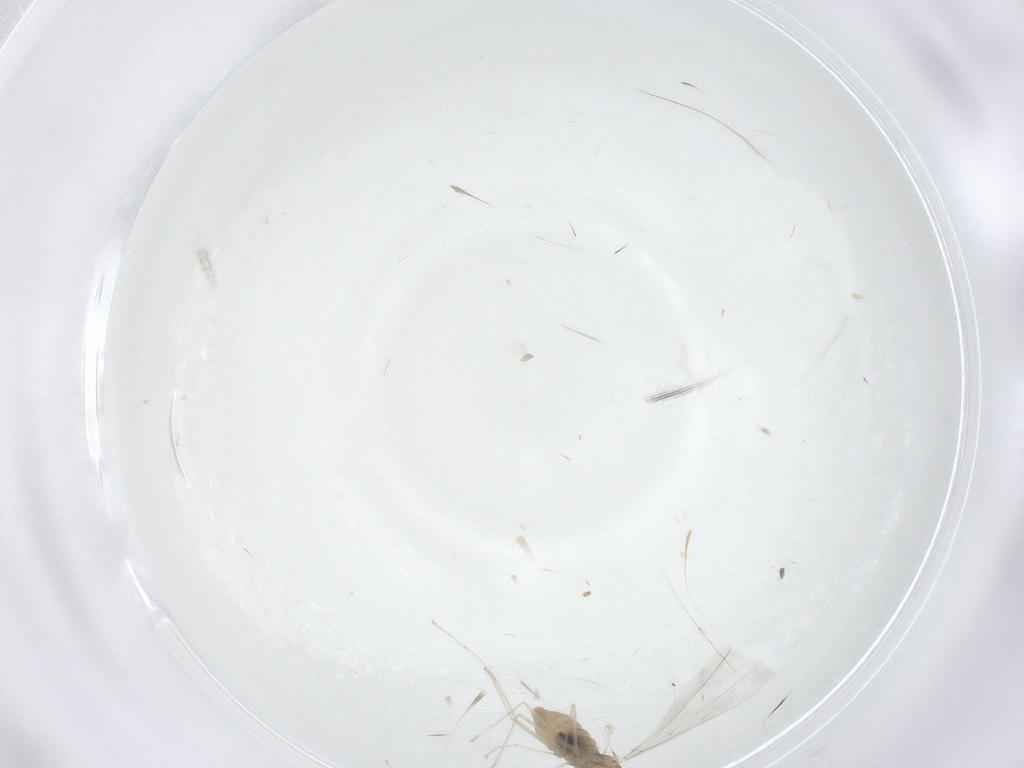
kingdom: Animalia
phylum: Arthropoda
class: Insecta
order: Diptera
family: Cecidomyiidae
